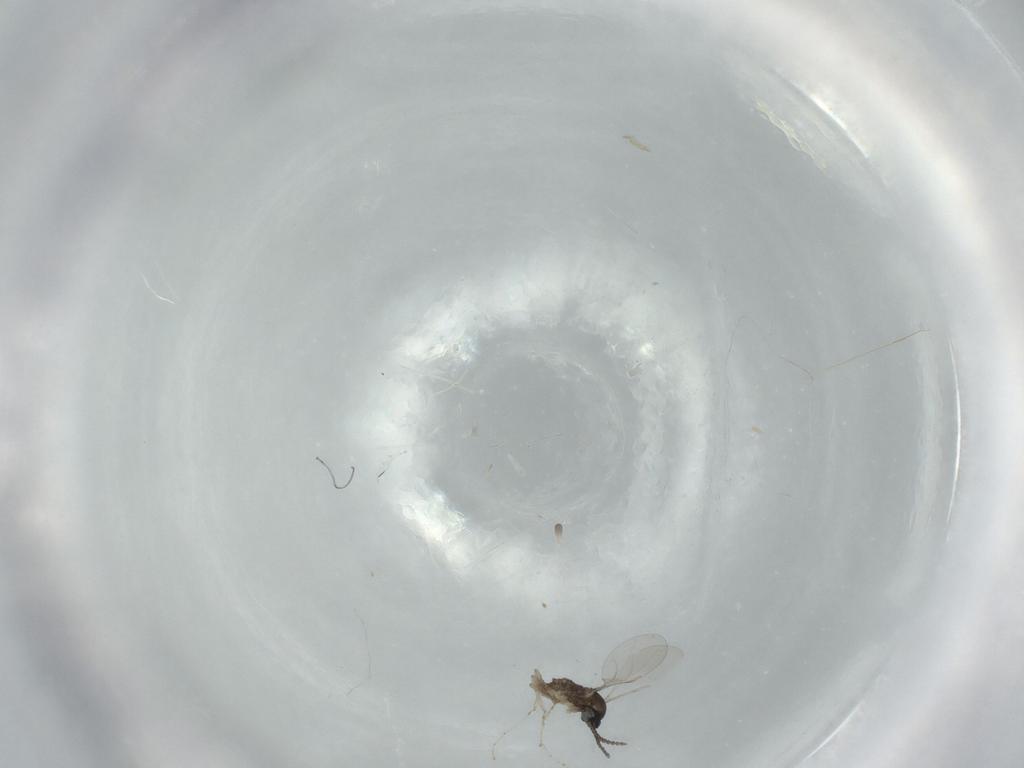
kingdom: Animalia
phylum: Arthropoda
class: Insecta
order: Diptera
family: Cecidomyiidae
